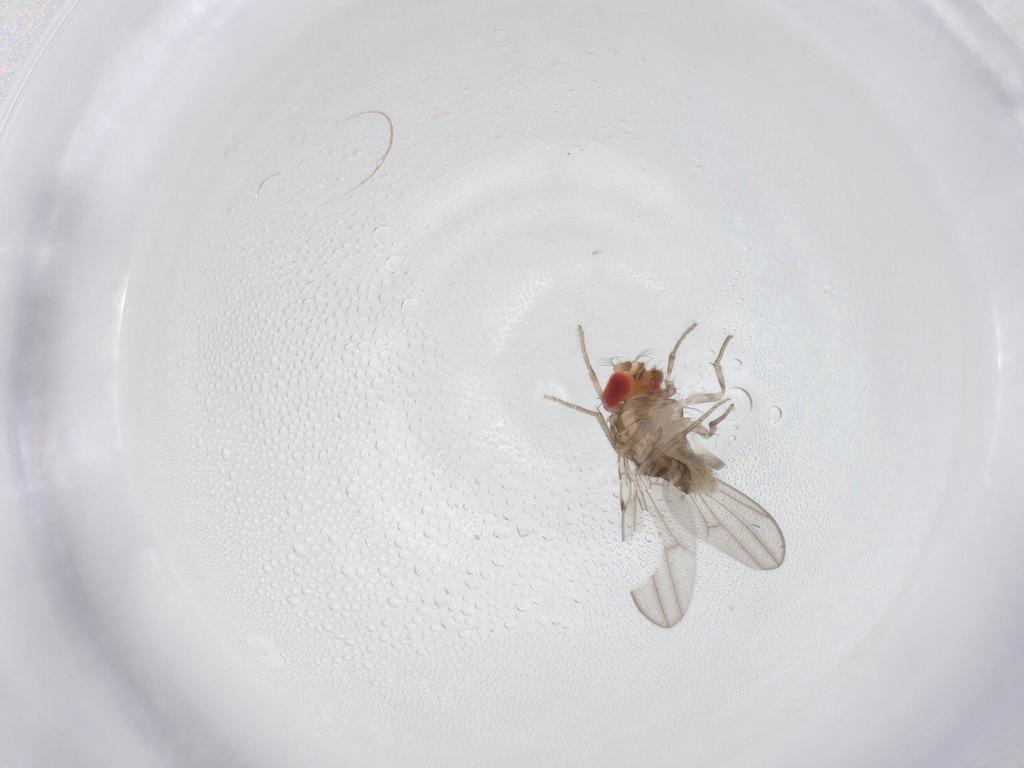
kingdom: Animalia
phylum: Arthropoda
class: Insecta
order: Diptera
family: Drosophilidae
